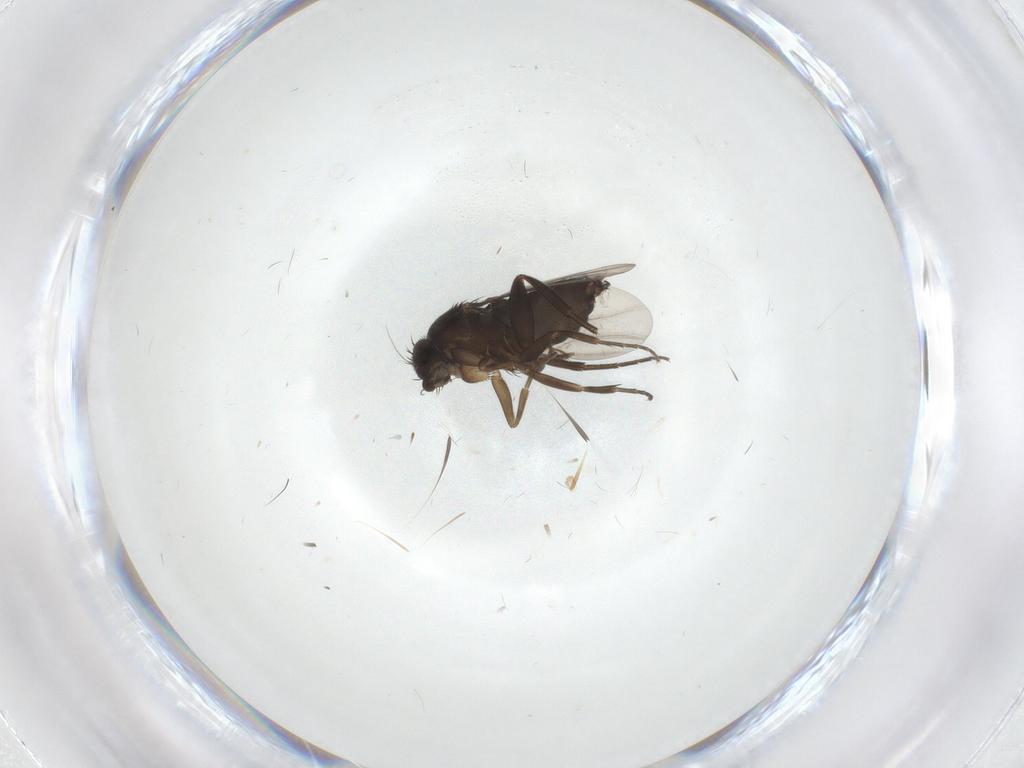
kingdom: Animalia
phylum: Arthropoda
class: Insecta
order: Diptera
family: Phoridae
